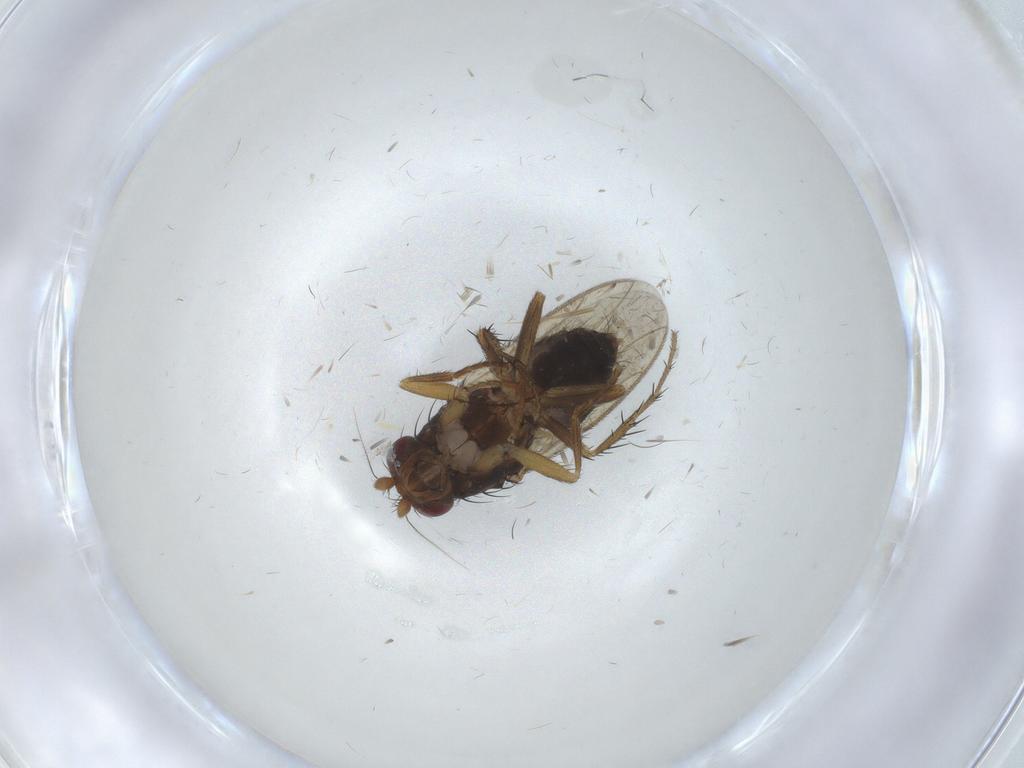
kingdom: Animalia
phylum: Arthropoda
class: Insecta
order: Diptera
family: Sphaeroceridae
